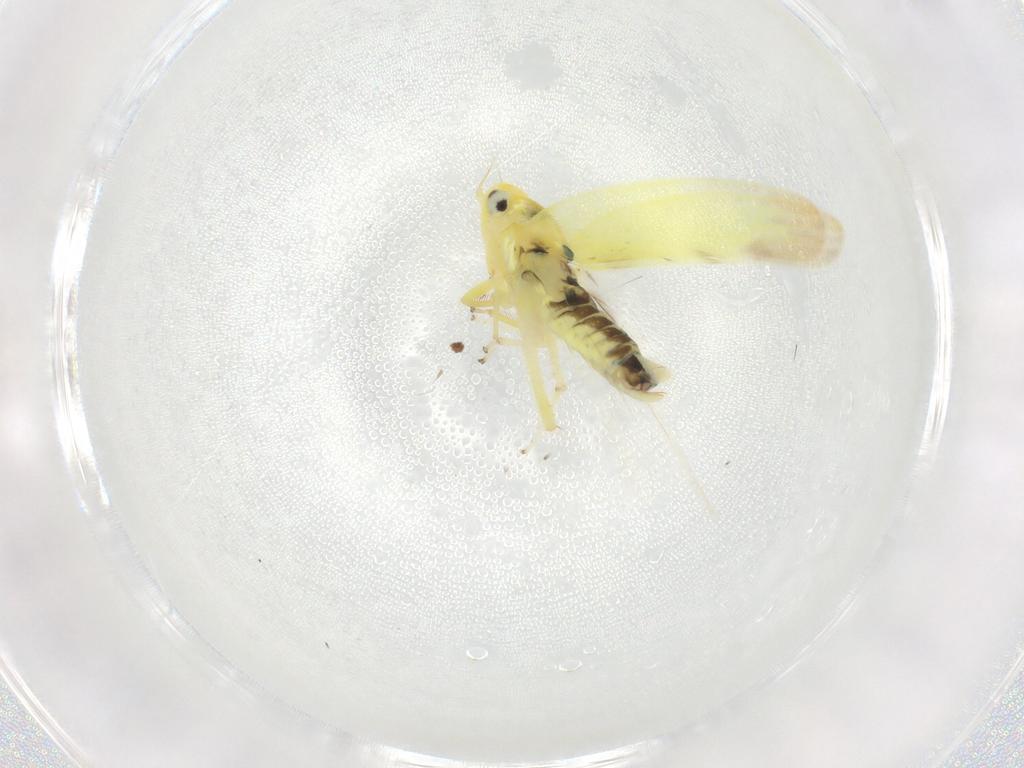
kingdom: Animalia
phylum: Arthropoda
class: Insecta
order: Hemiptera
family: Cicadellidae
